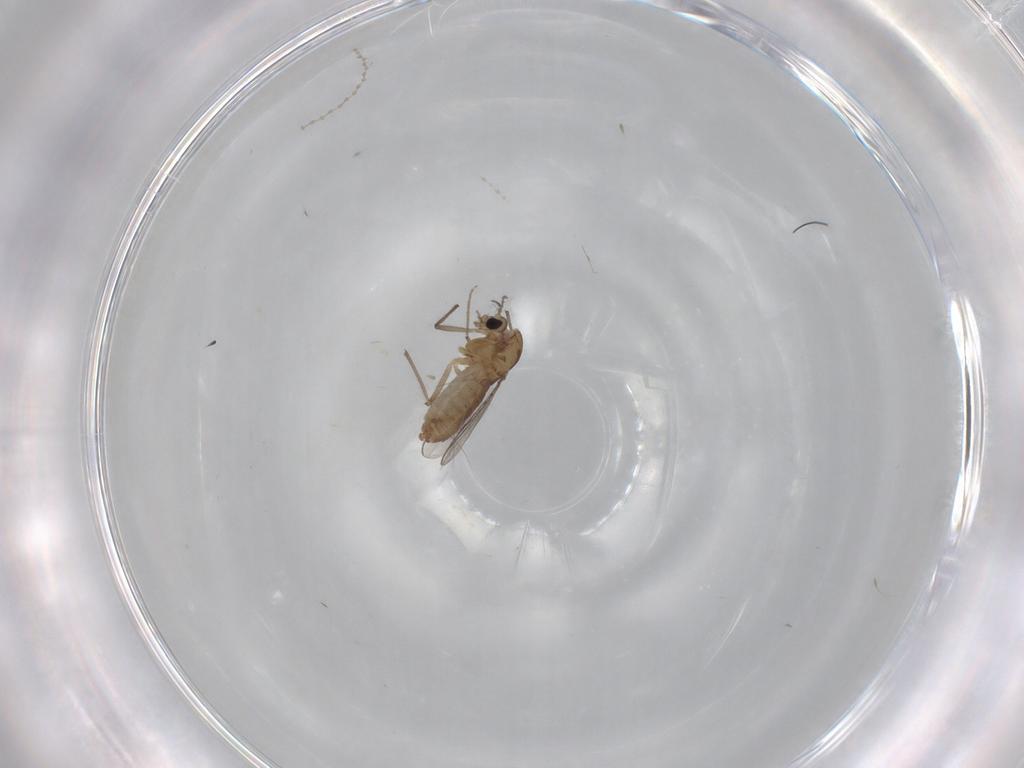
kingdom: Animalia
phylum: Arthropoda
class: Insecta
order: Diptera
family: Chironomidae
